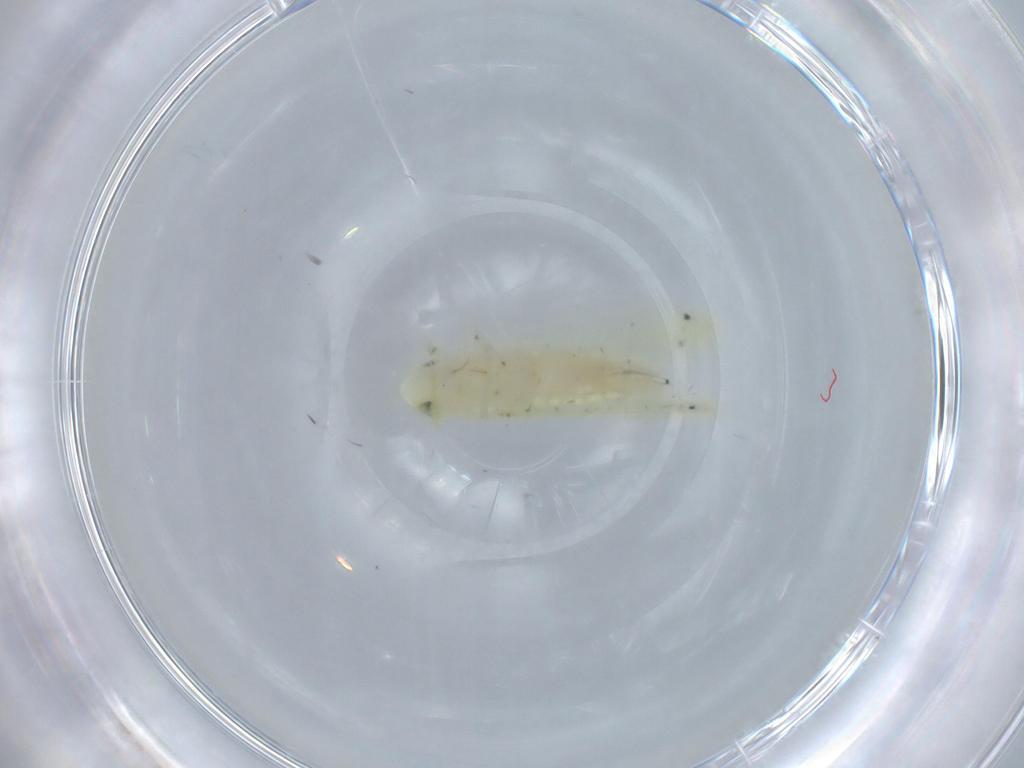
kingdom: Animalia
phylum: Arthropoda
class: Insecta
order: Hemiptera
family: Cicadellidae
